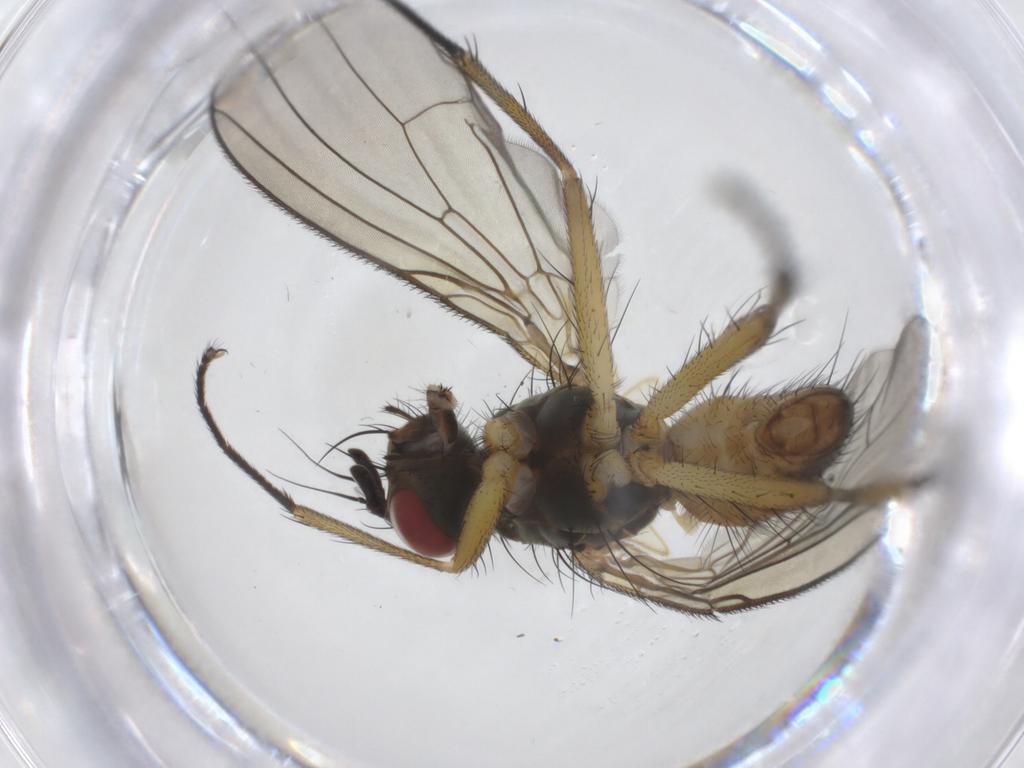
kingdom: Animalia
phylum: Arthropoda
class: Insecta
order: Diptera
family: Muscidae
